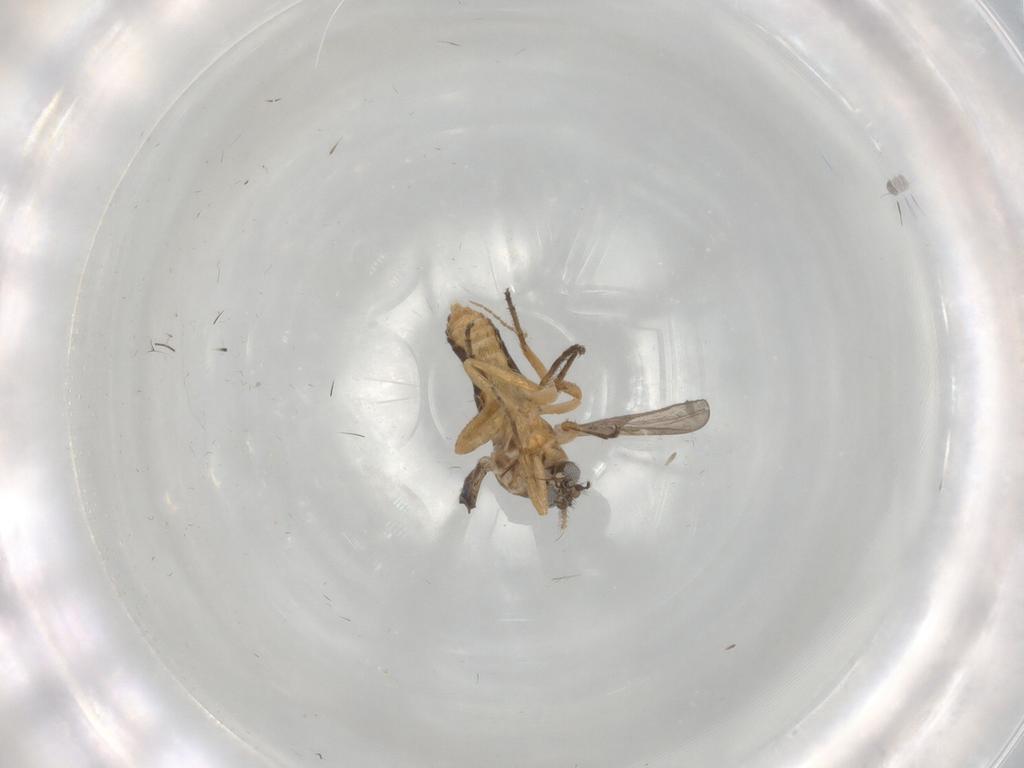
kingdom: Animalia
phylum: Arthropoda
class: Insecta
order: Diptera
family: Ceratopogonidae
